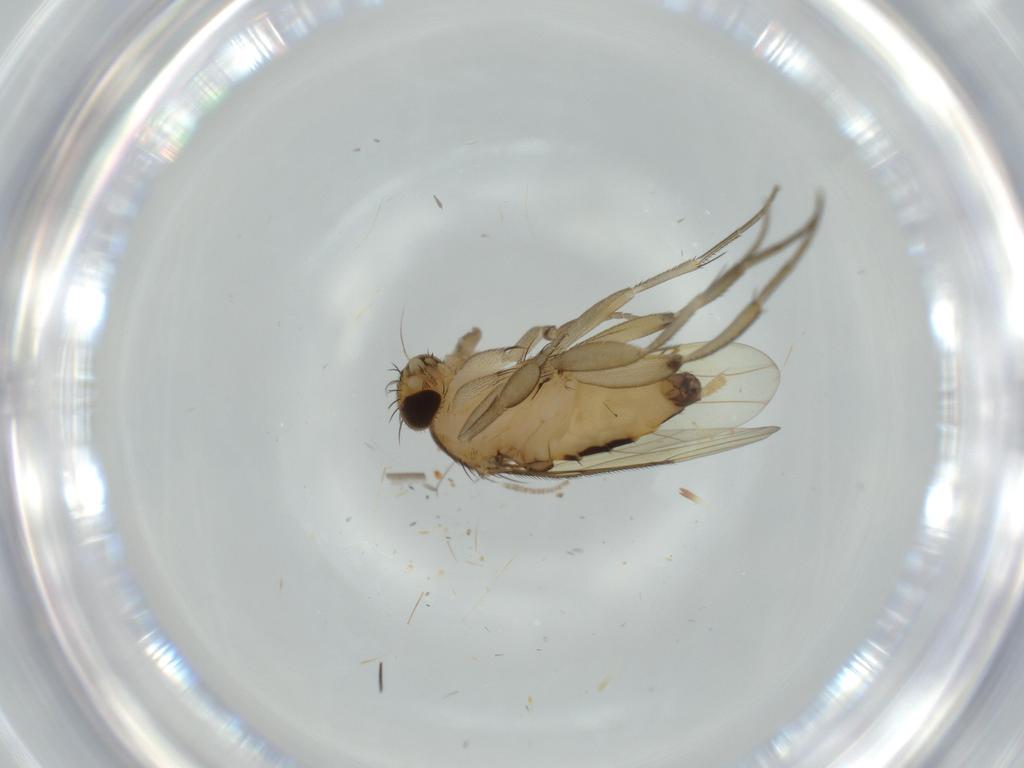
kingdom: Animalia
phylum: Arthropoda
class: Insecta
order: Diptera
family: Phoridae
